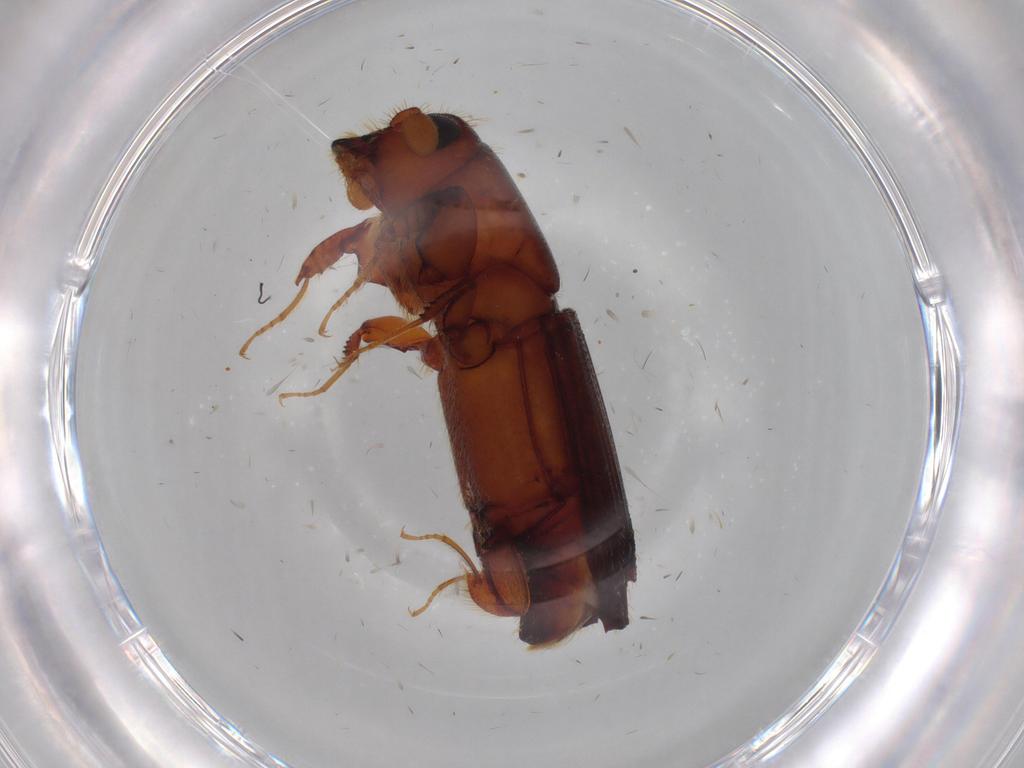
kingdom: Animalia
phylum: Arthropoda
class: Insecta
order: Coleoptera
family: Curculionidae
